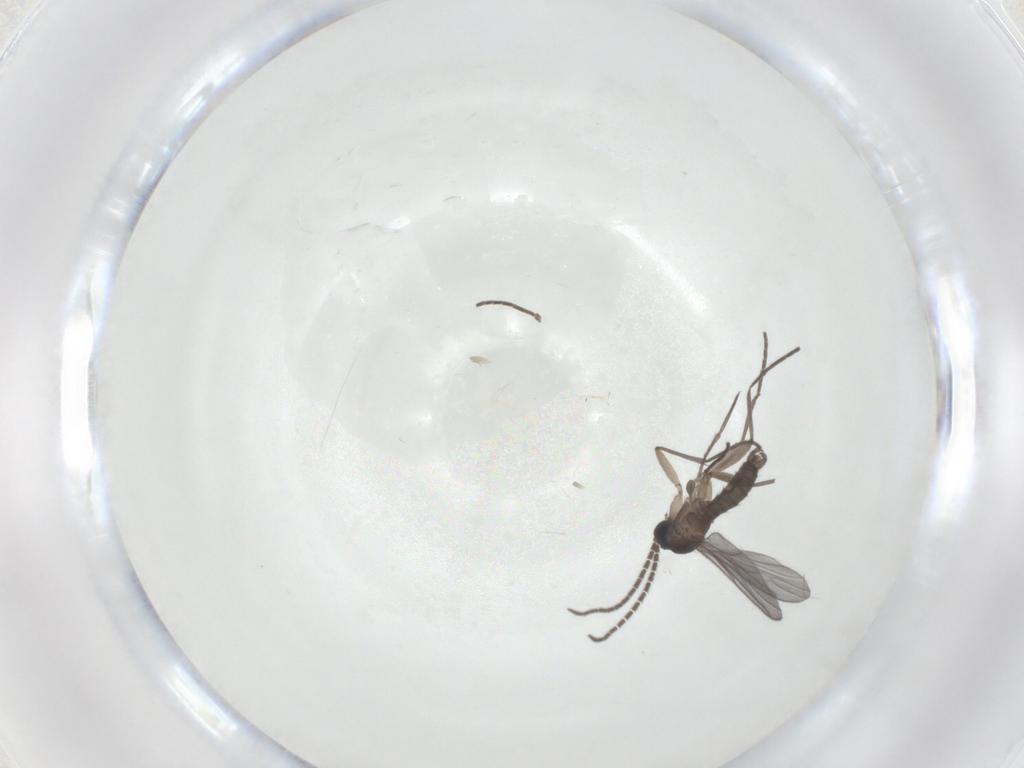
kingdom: Animalia
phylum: Arthropoda
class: Insecta
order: Diptera
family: Sciaridae
